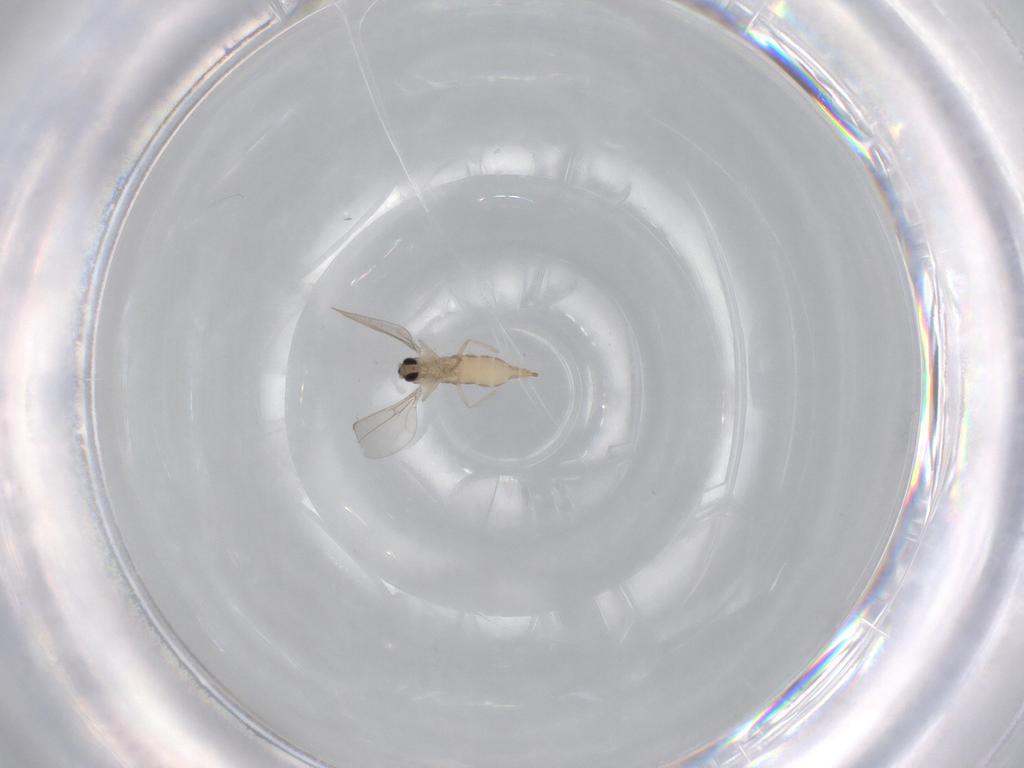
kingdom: Animalia
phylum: Arthropoda
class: Insecta
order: Diptera
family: Cecidomyiidae
